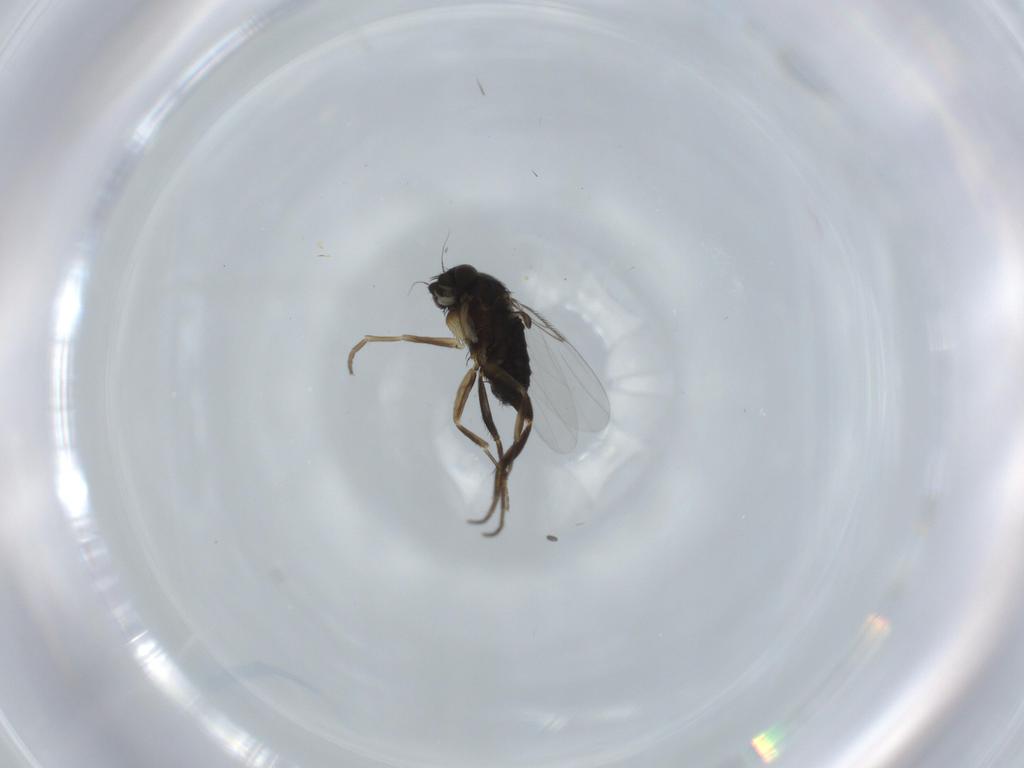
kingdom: Animalia
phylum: Arthropoda
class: Insecta
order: Diptera
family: Phoridae
